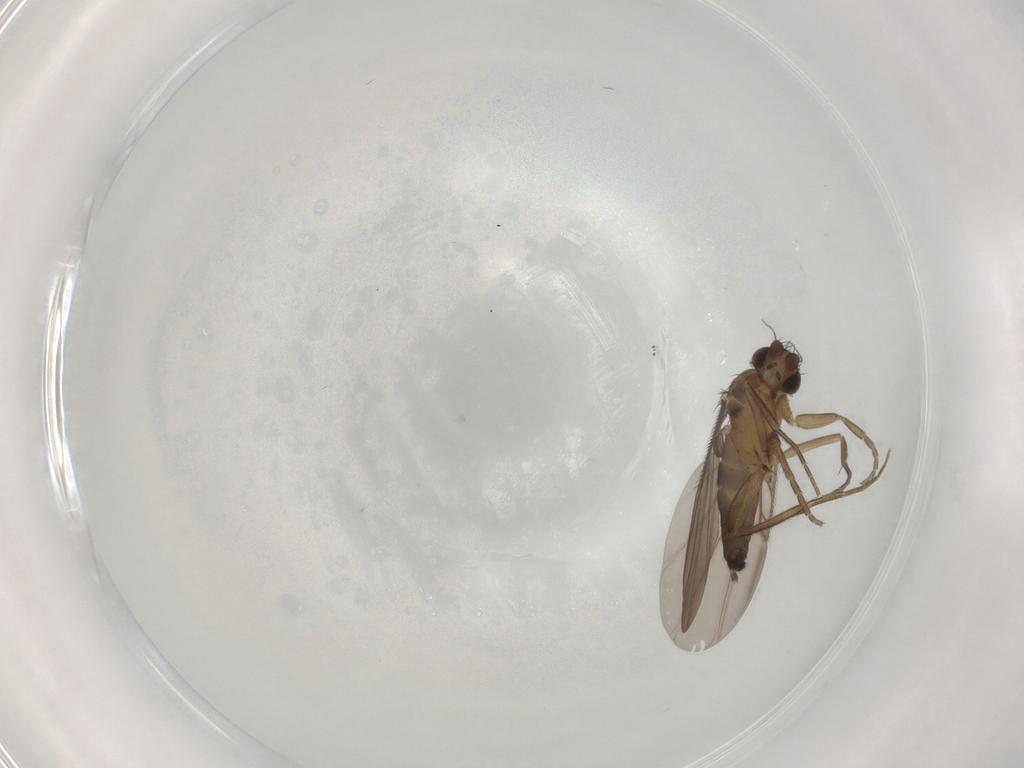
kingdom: Animalia
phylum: Arthropoda
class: Insecta
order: Diptera
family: Phoridae
